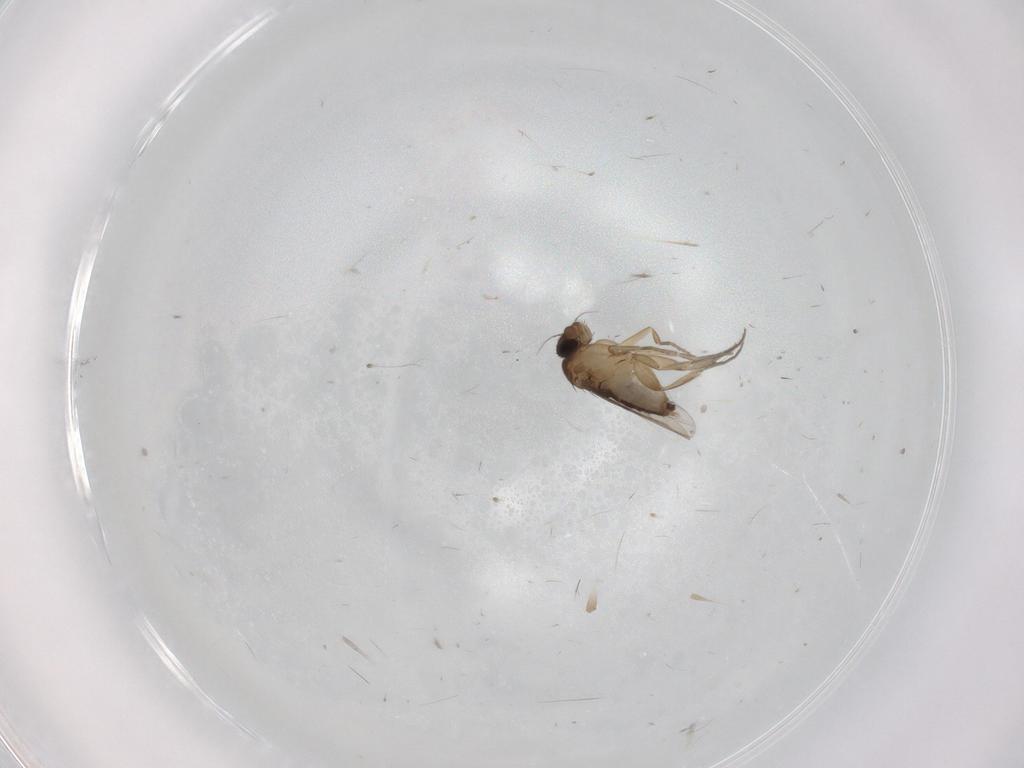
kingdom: Animalia
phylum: Arthropoda
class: Insecta
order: Diptera
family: Phoridae
